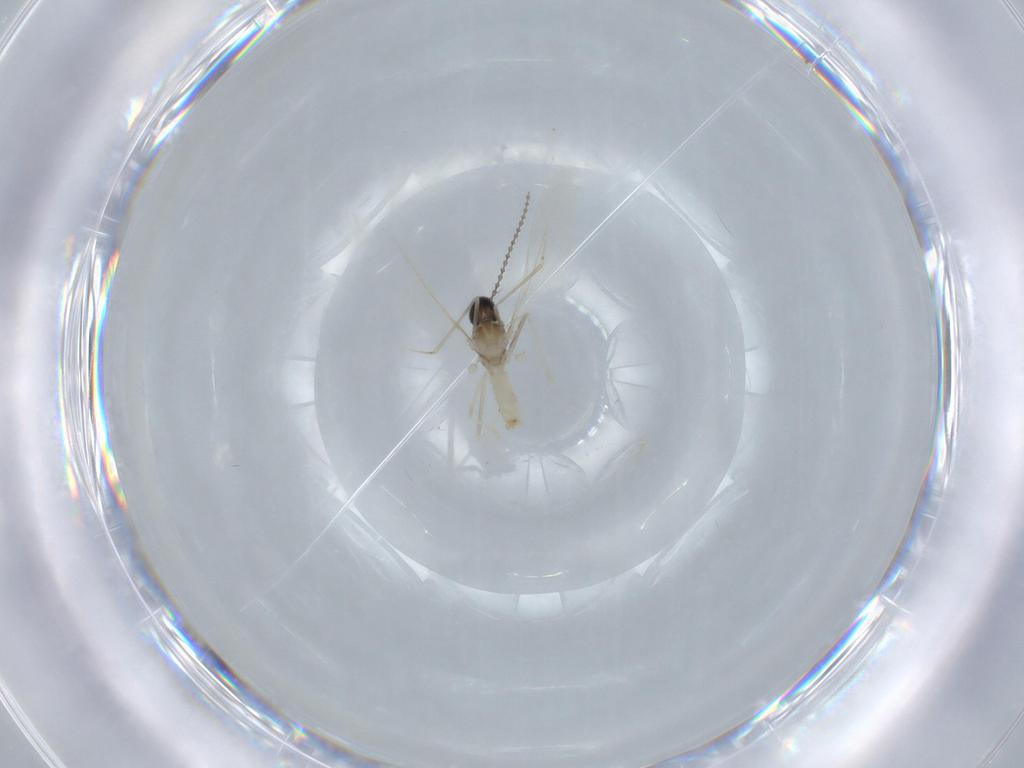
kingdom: Animalia
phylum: Arthropoda
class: Insecta
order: Diptera
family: Cecidomyiidae
